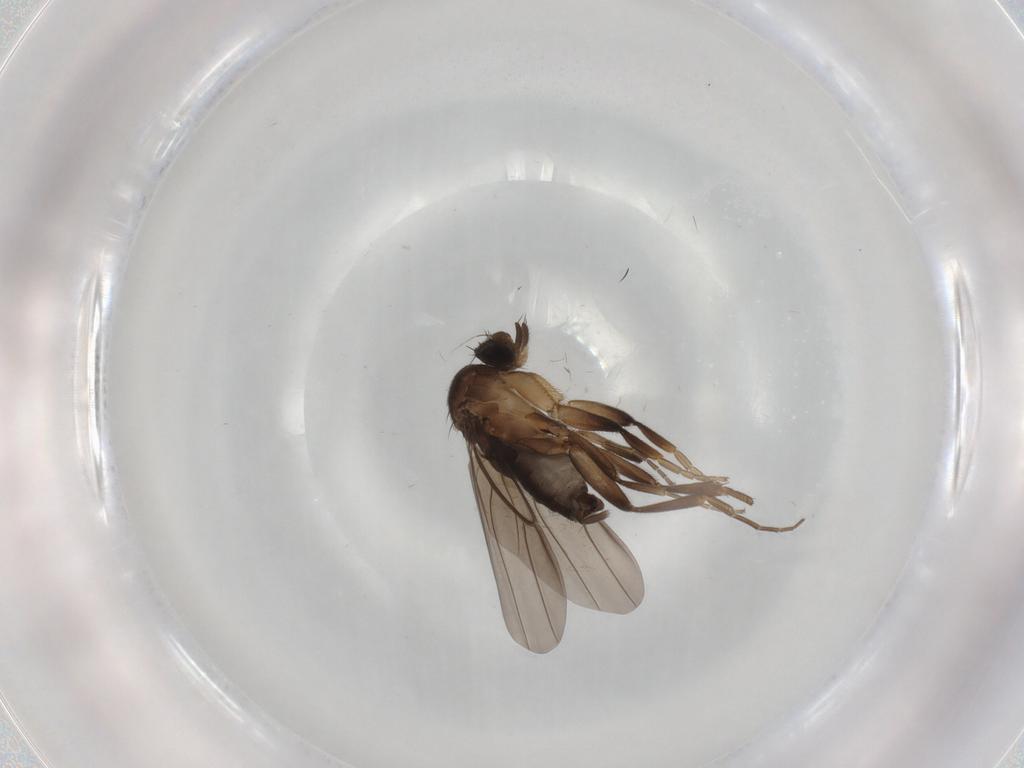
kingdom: Animalia
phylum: Arthropoda
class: Insecta
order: Diptera
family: Phoridae
